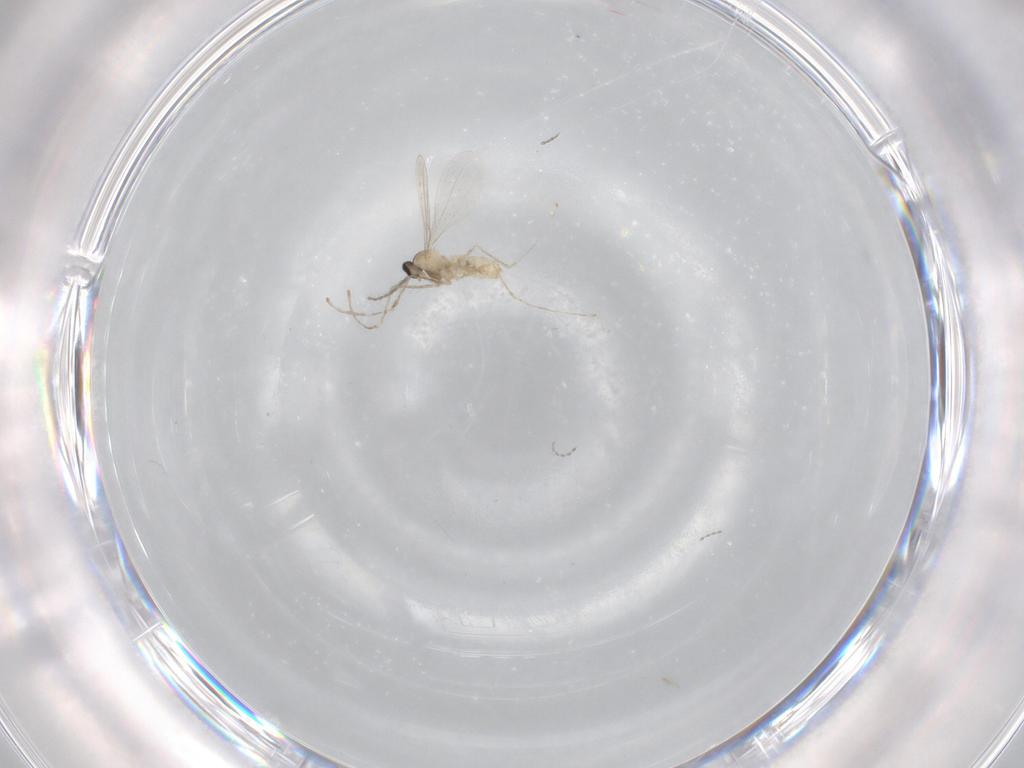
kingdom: Animalia
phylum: Arthropoda
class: Insecta
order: Diptera
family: Cecidomyiidae
